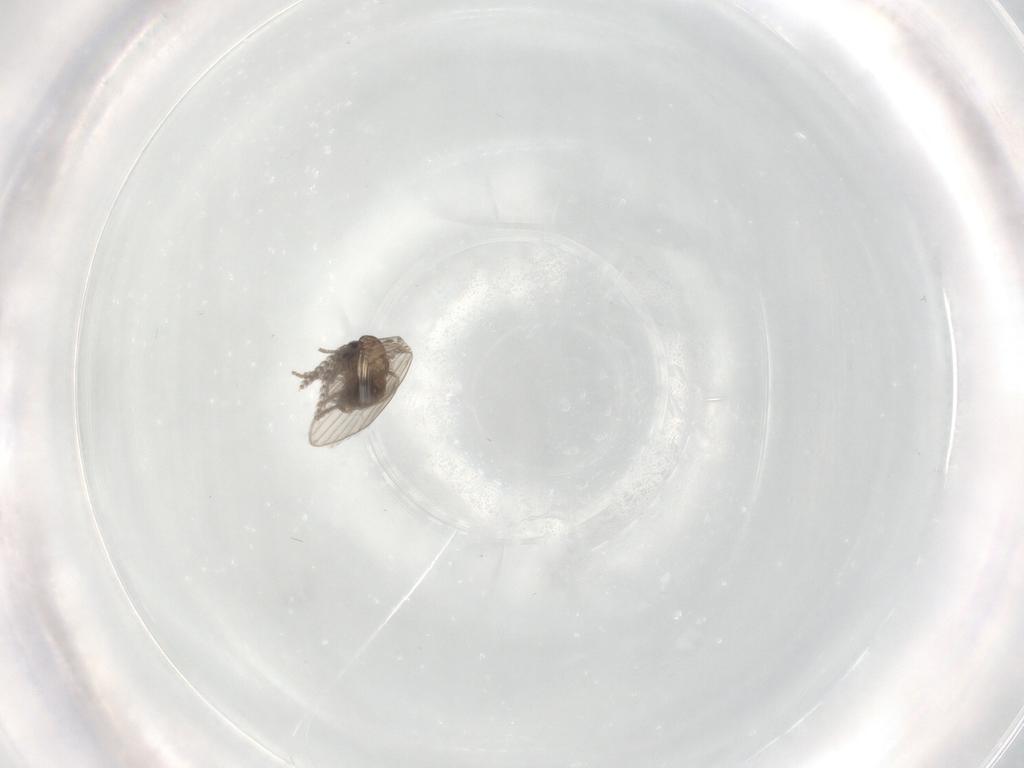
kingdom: Animalia
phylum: Arthropoda
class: Insecta
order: Diptera
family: Psychodidae
